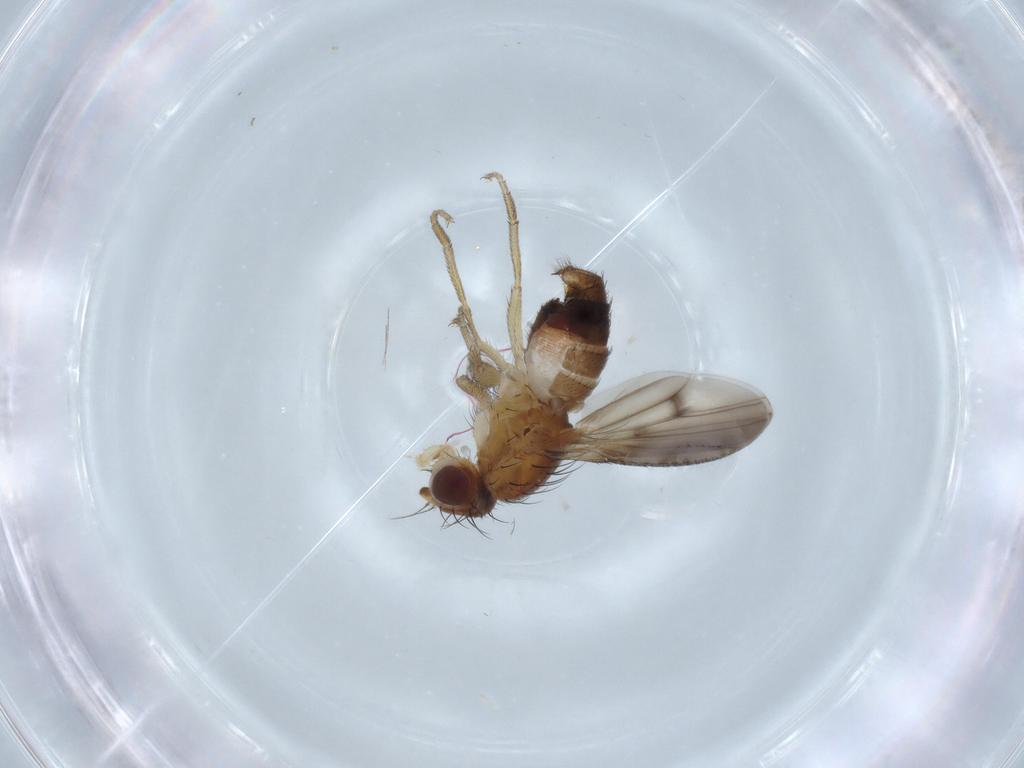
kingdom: Animalia
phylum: Arthropoda
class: Insecta
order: Diptera
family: Heleomyzidae
